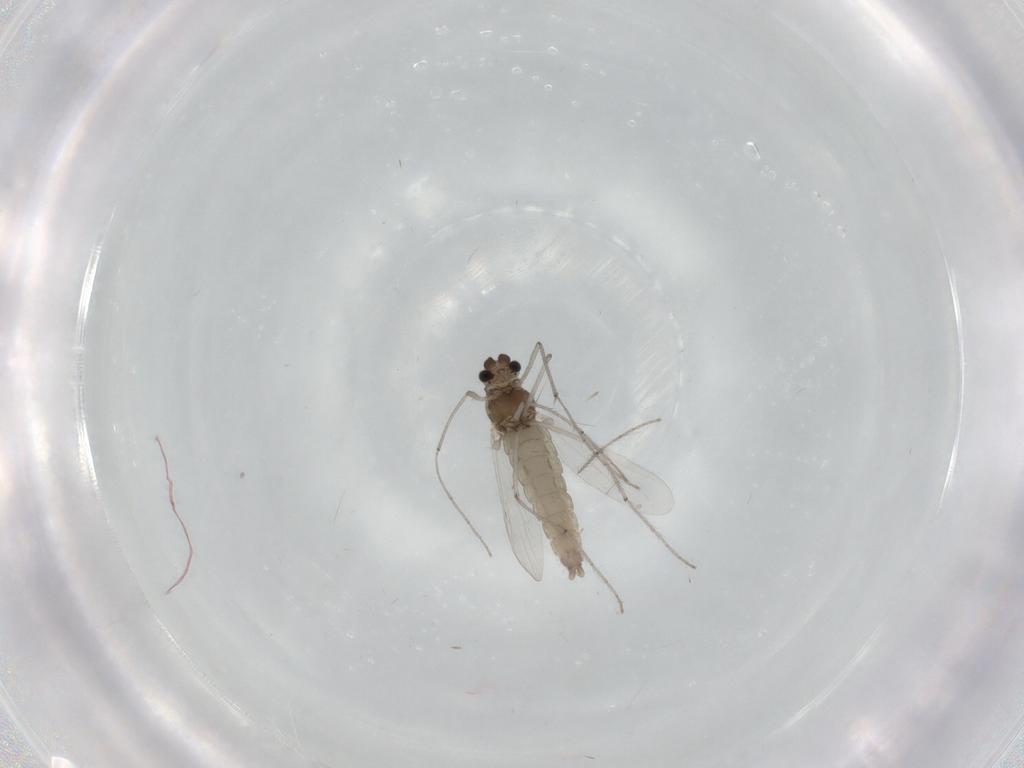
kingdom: Animalia
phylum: Arthropoda
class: Insecta
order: Diptera
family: Chironomidae
